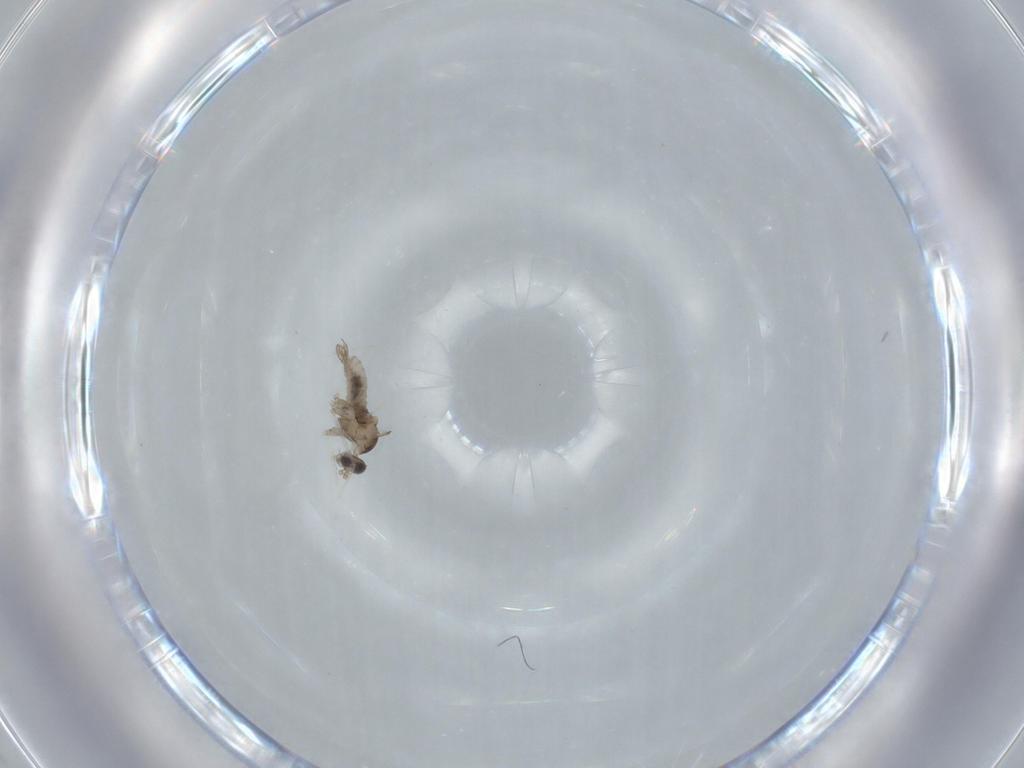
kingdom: Animalia
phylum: Arthropoda
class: Insecta
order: Diptera
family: Cecidomyiidae
